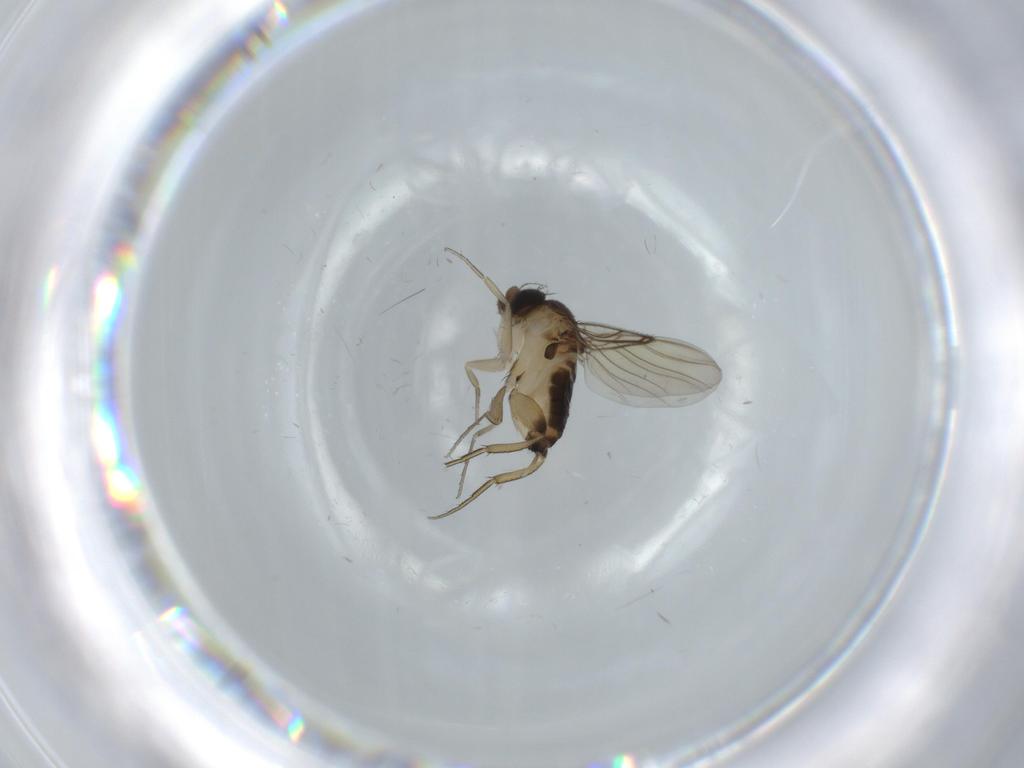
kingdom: Animalia
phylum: Arthropoda
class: Insecta
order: Diptera
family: Phoridae
